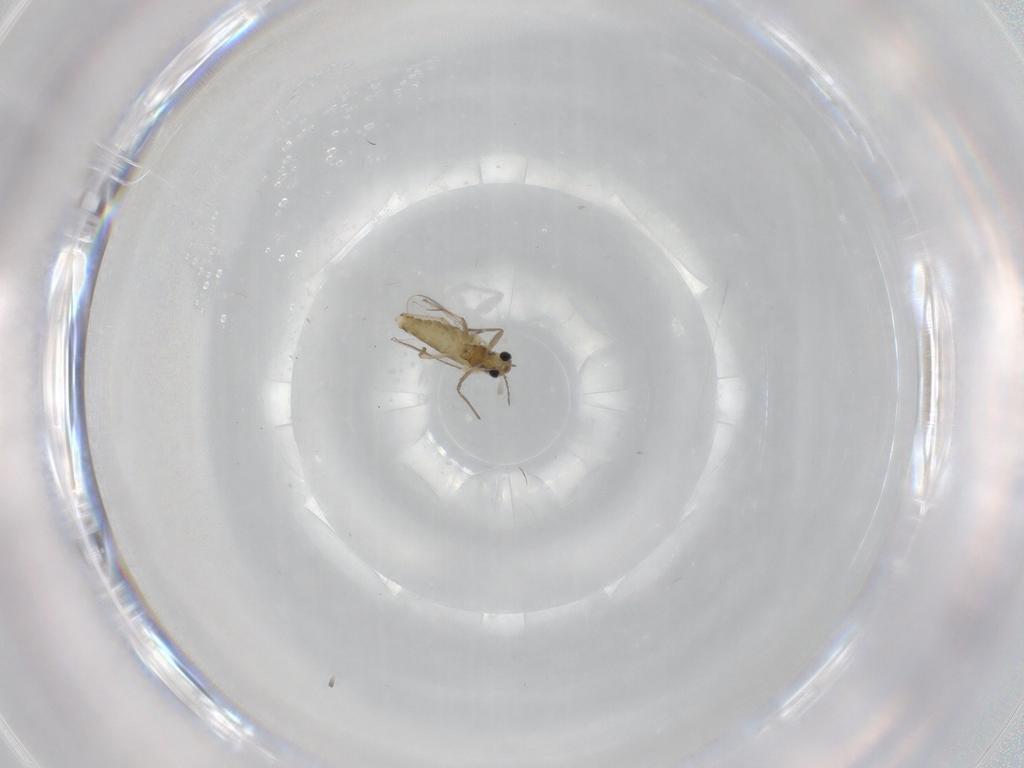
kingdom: Animalia
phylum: Arthropoda
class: Insecta
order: Diptera
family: Chironomidae
